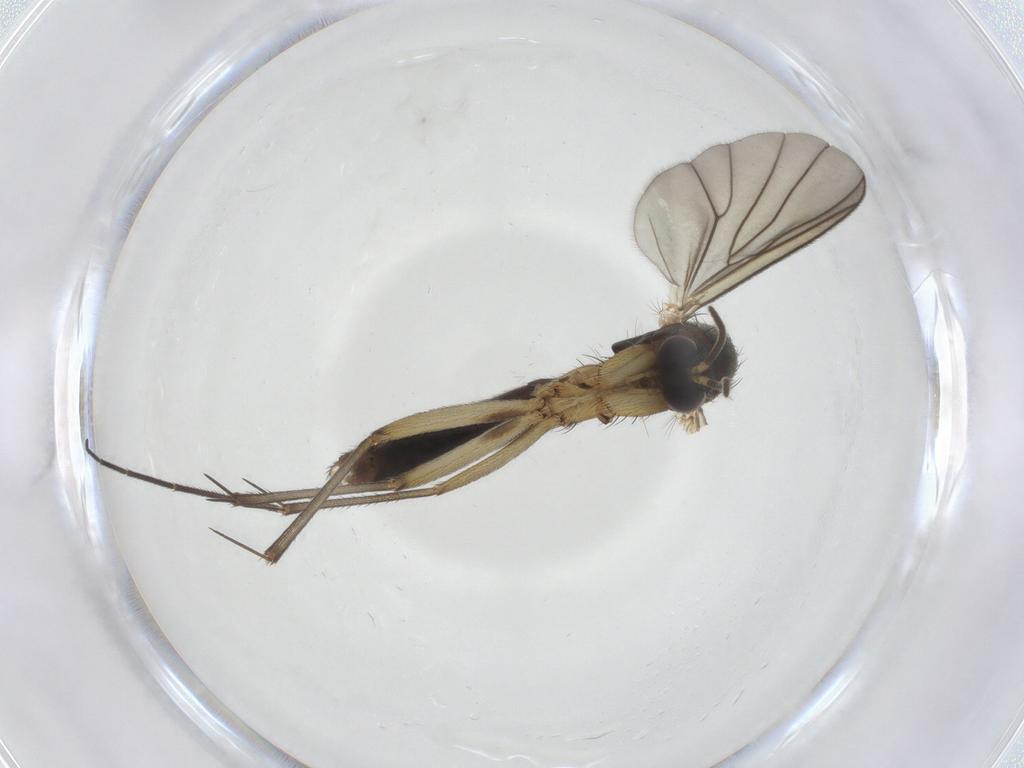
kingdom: Animalia
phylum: Arthropoda
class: Insecta
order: Diptera
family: Mycetophilidae
